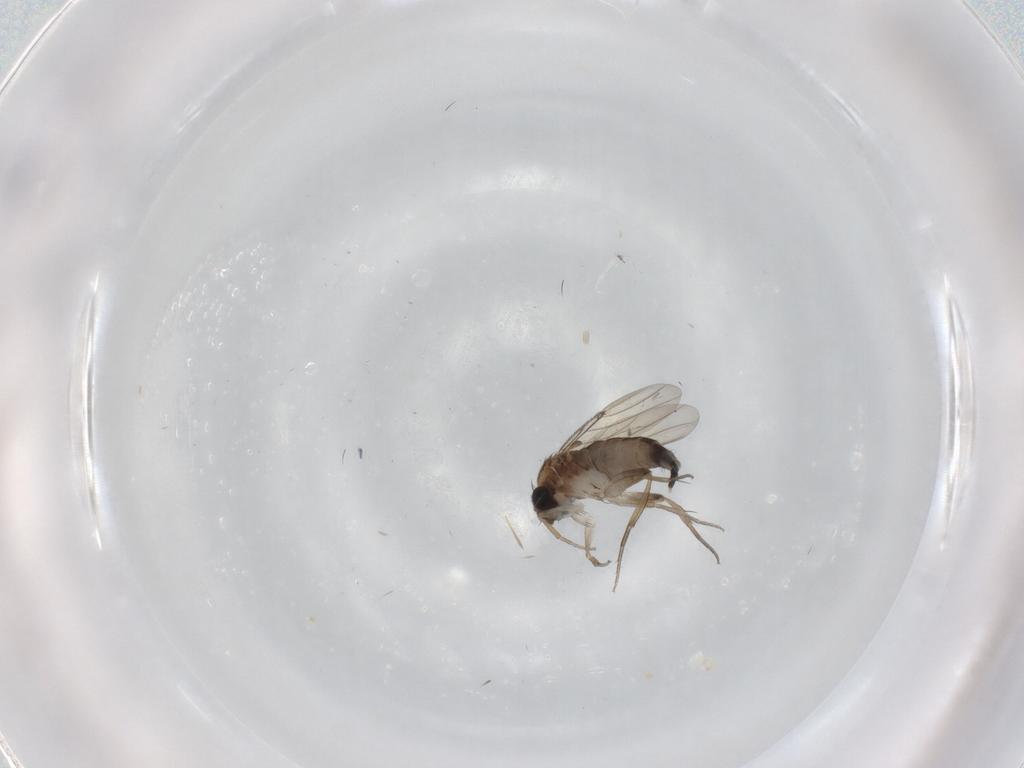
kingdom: Animalia
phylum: Arthropoda
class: Insecta
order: Diptera
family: Phoridae
